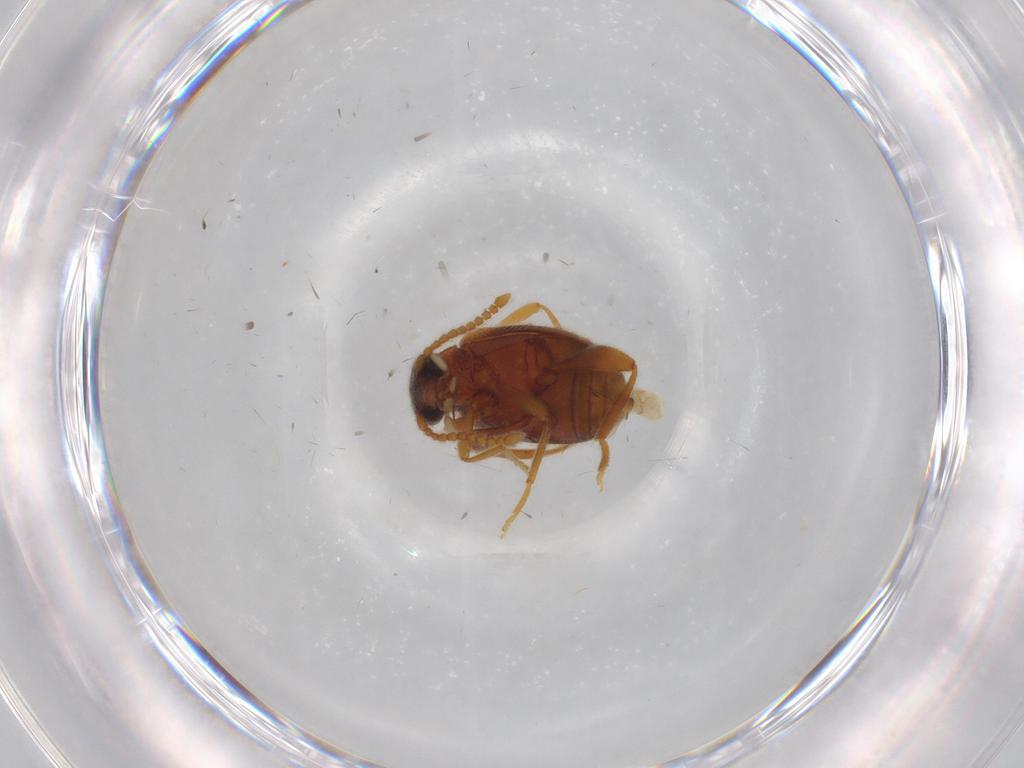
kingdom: Animalia
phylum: Arthropoda
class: Insecta
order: Coleoptera
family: Aderidae
